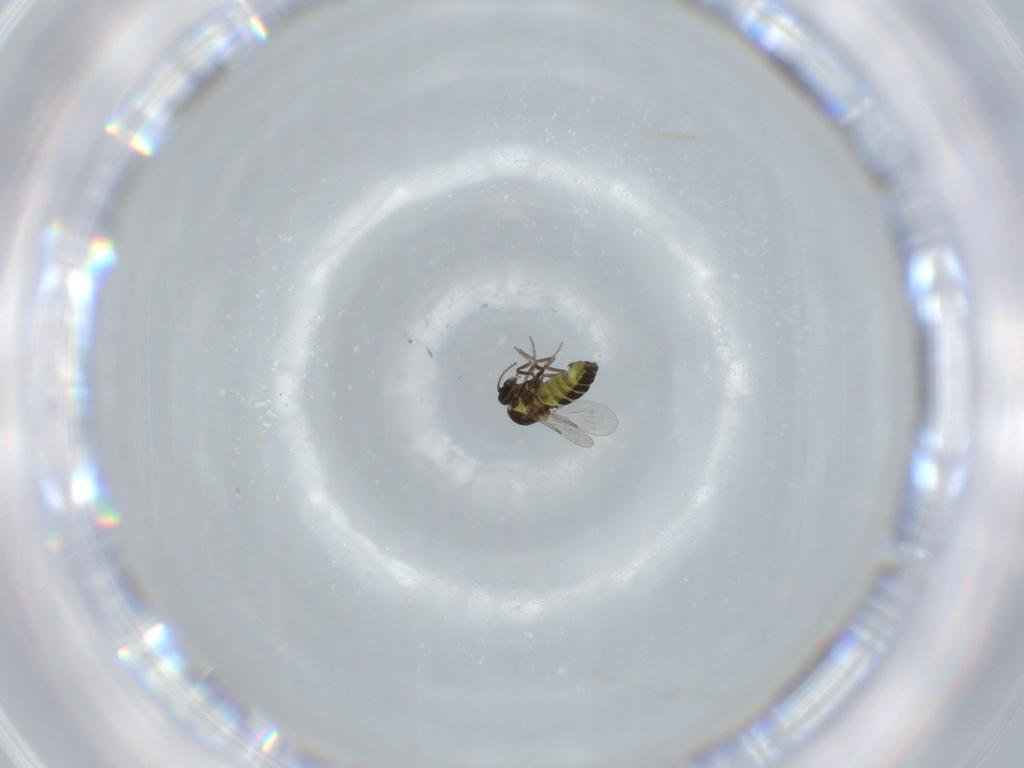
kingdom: Animalia
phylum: Arthropoda
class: Insecta
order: Diptera
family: Ceratopogonidae
